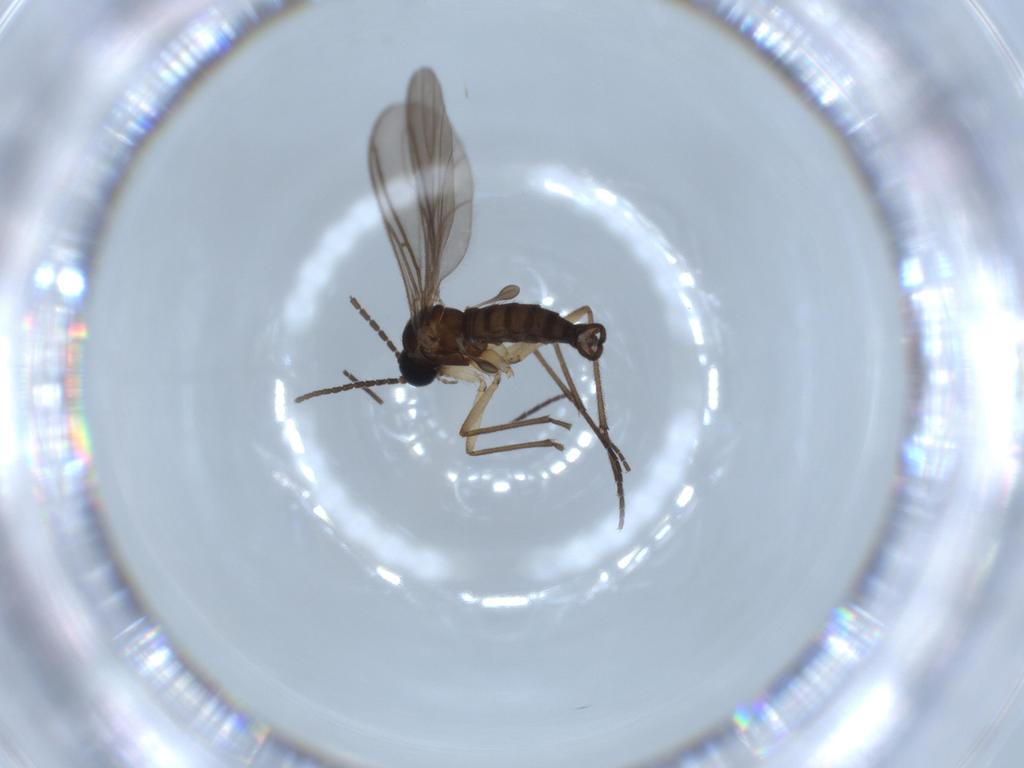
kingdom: Animalia
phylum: Arthropoda
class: Insecta
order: Diptera
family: Sciaridae
